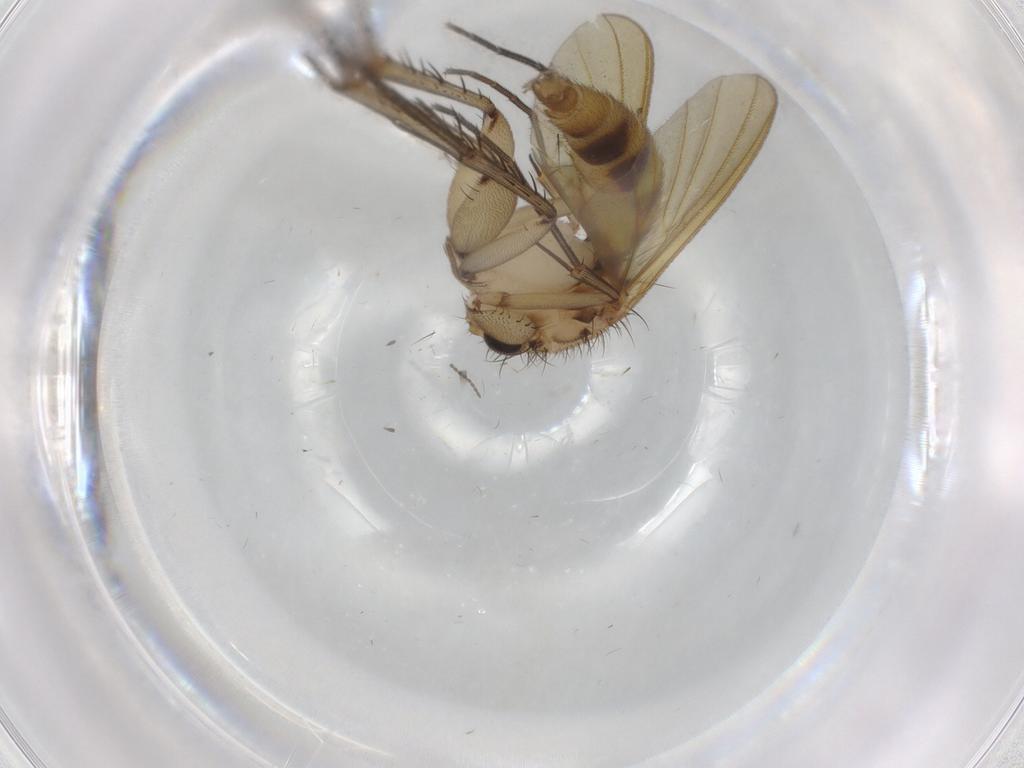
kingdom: Animalia
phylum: Arthropoda
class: Insecta
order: Diptera
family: Mycetophilidae
